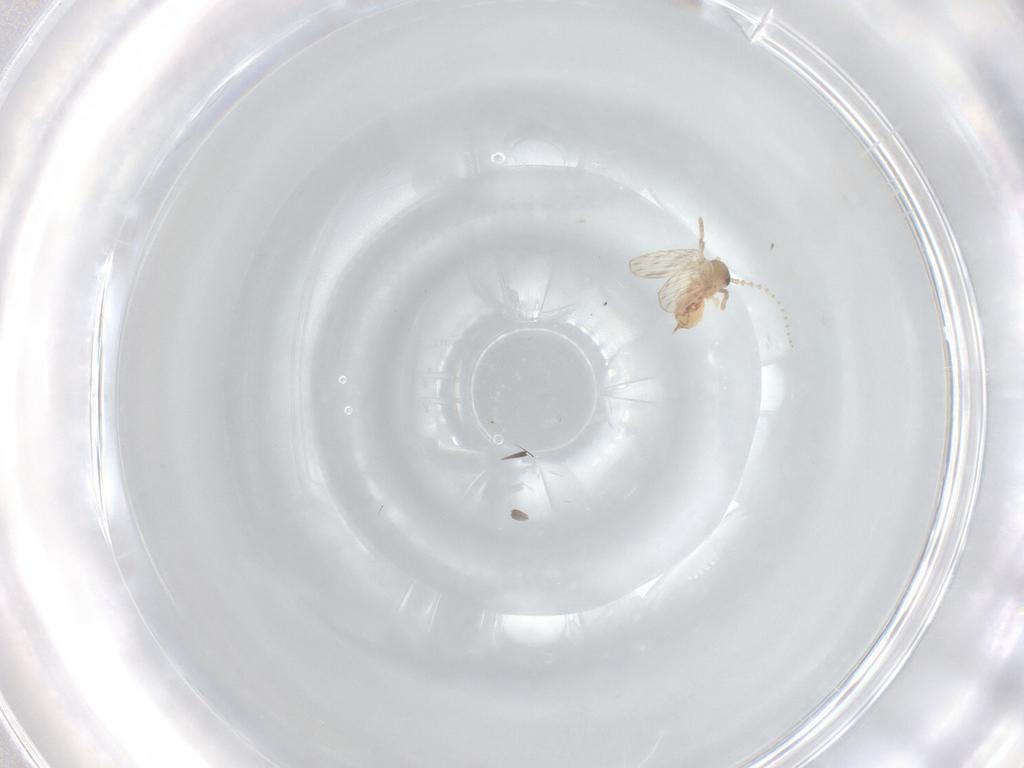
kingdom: Animalia
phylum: Arthropoda
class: Insecta
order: Diptera
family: Psychodidae
